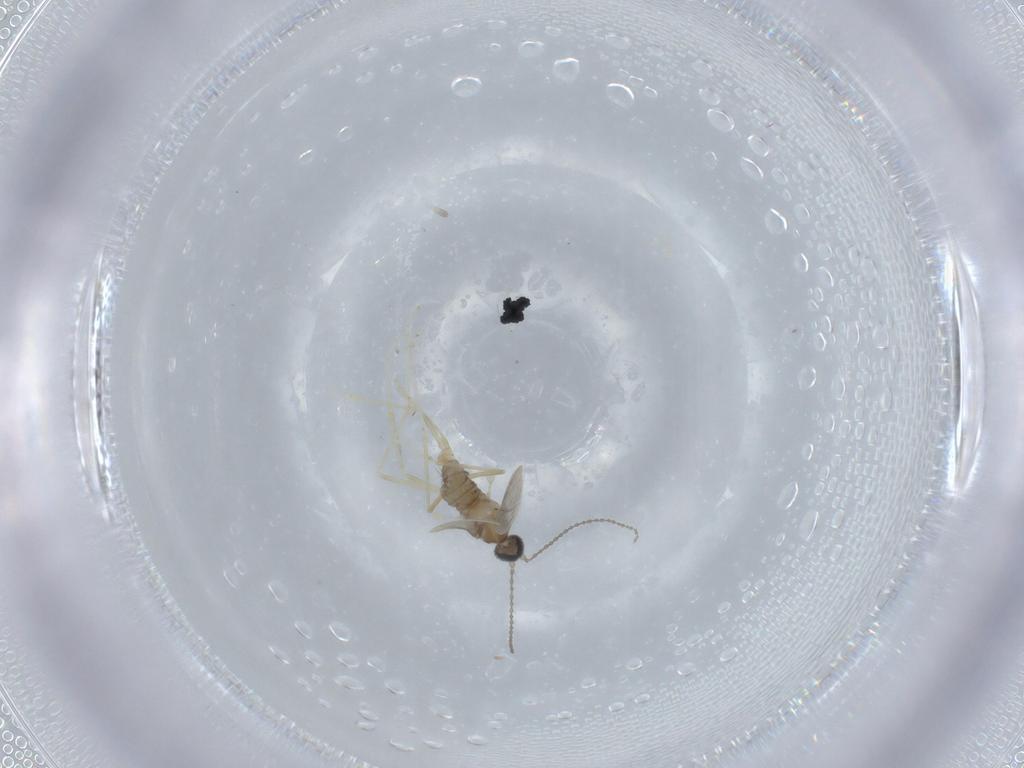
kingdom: Animalia
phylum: Arthropoda
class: Insecta
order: Diptera
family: Cecidomyiidae
